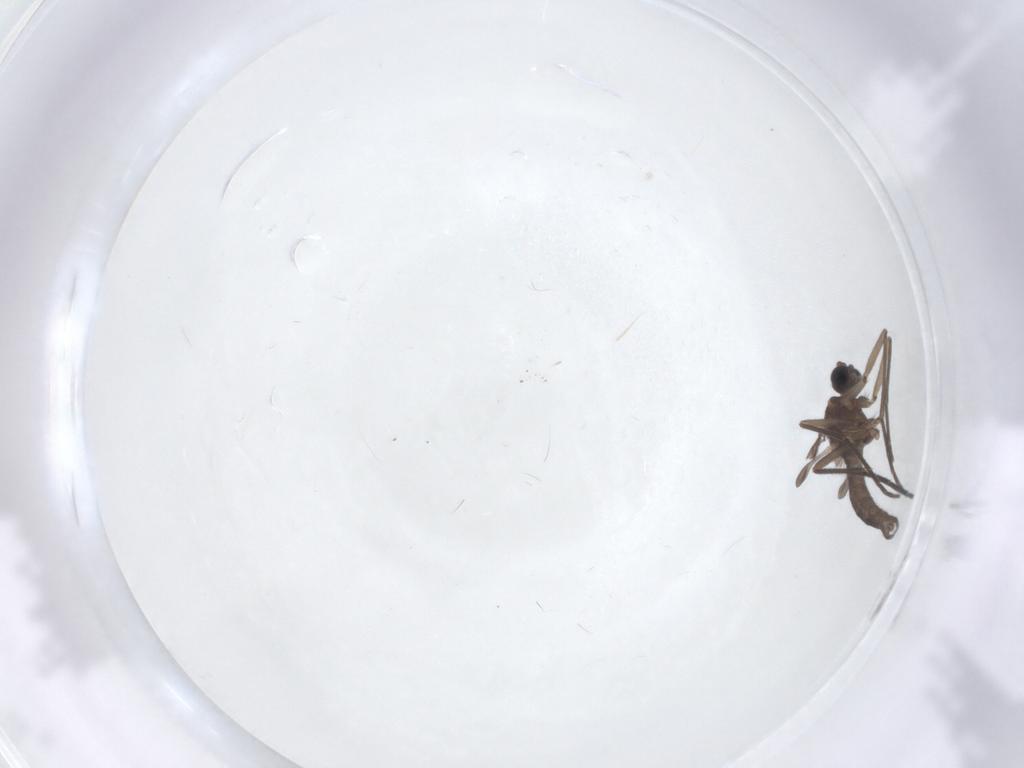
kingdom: Animalia
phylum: Arthropoda
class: Insecta
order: Diptera
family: Sciaridae
